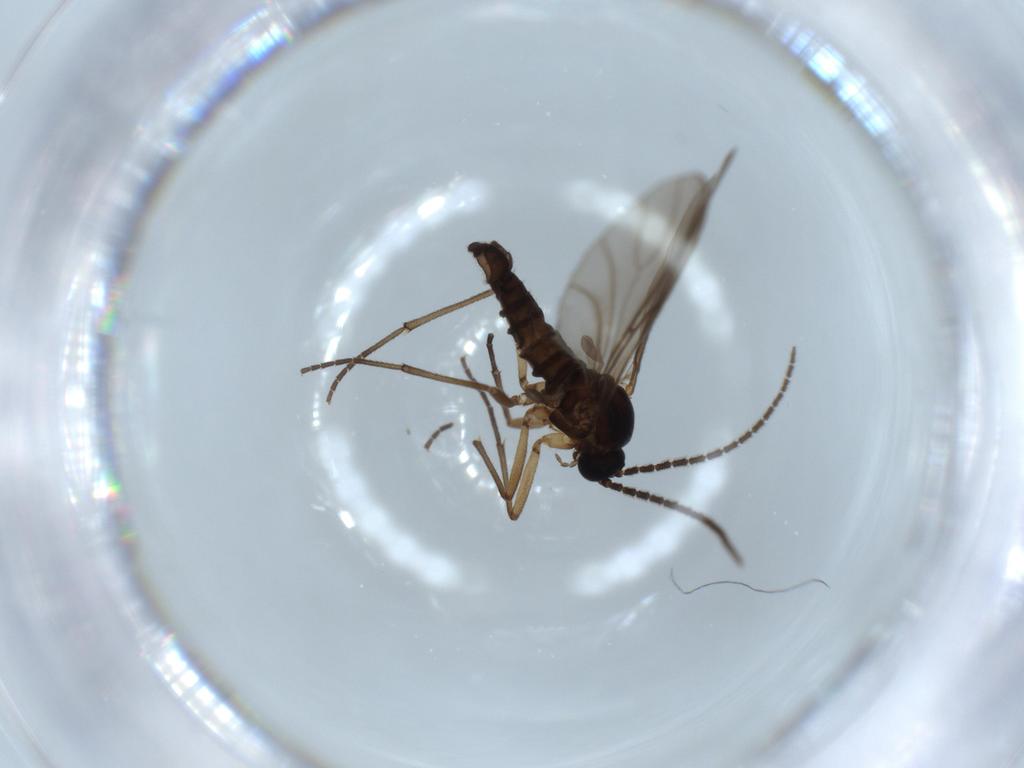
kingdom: Animalia
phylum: Arthropoda
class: Insecta
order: Diptera
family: Sciaridae
